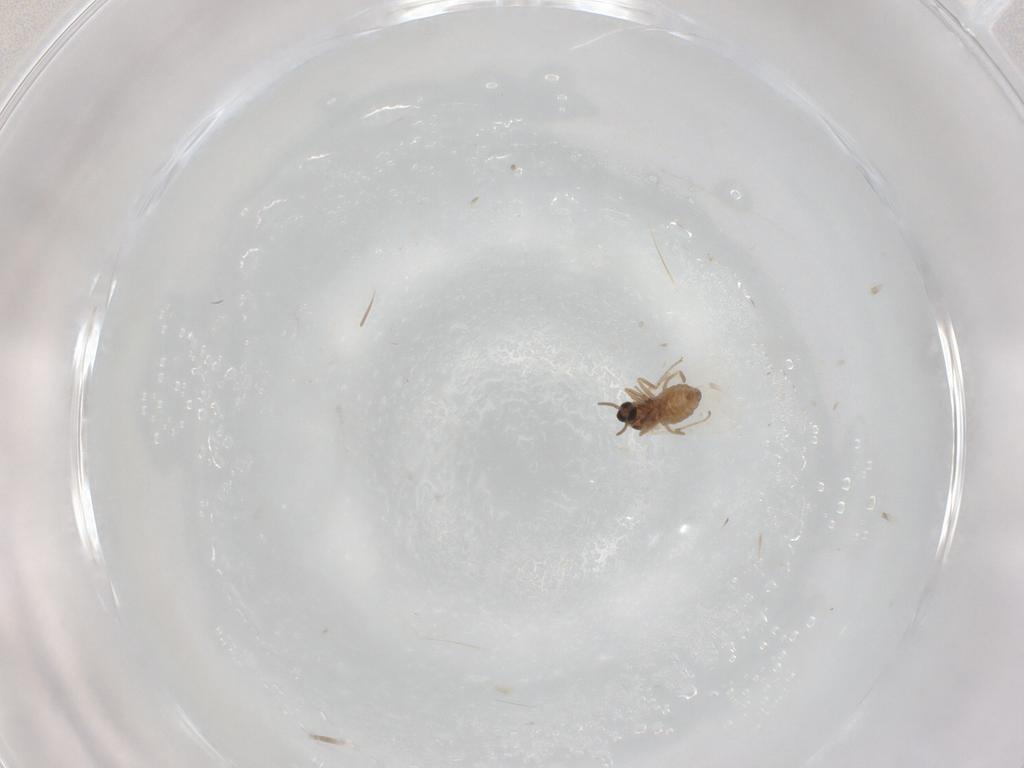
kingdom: Animalia
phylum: Arthropoda
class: Insecta
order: Diptera
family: Cecidomyiidae
